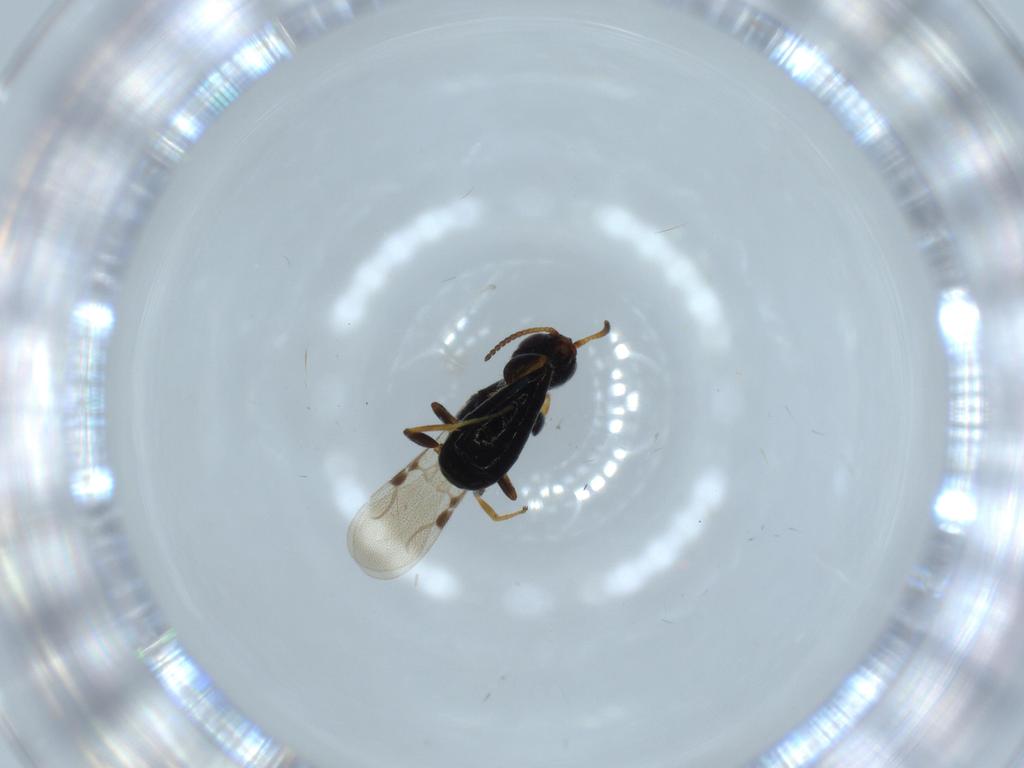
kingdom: Animalia
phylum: Arthropoda
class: Insecta
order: Hymenoptera
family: Bethylidae
